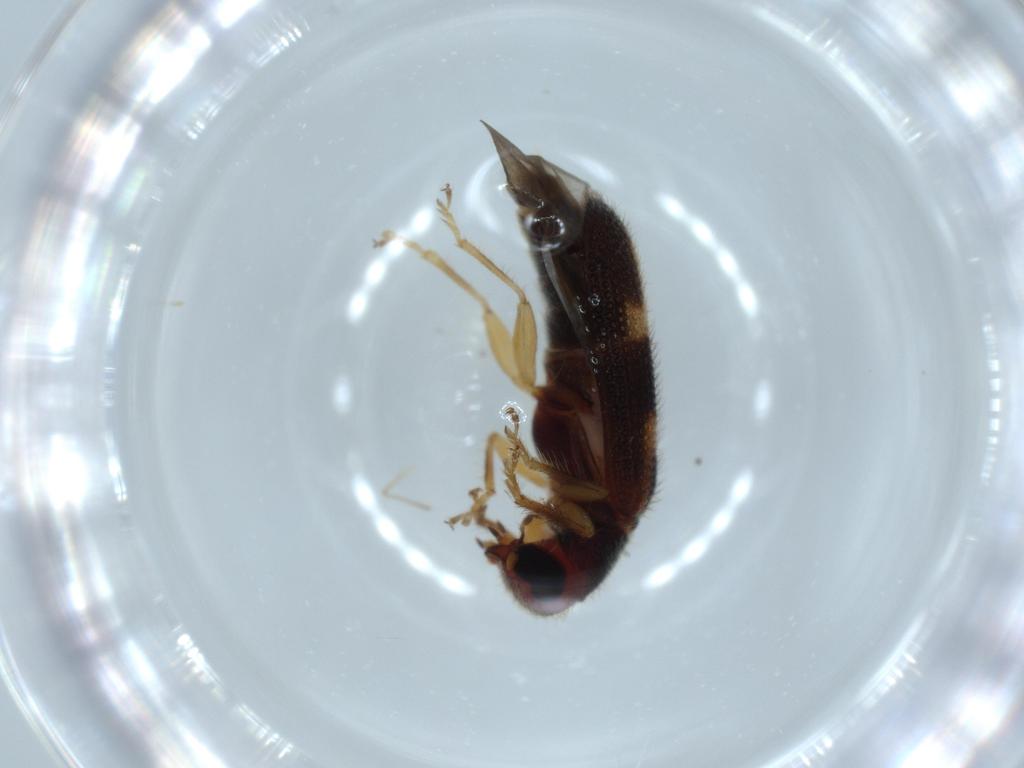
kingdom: Animalia
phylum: Arthropoda
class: Insecta
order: Coleoptera
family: Cleridae
